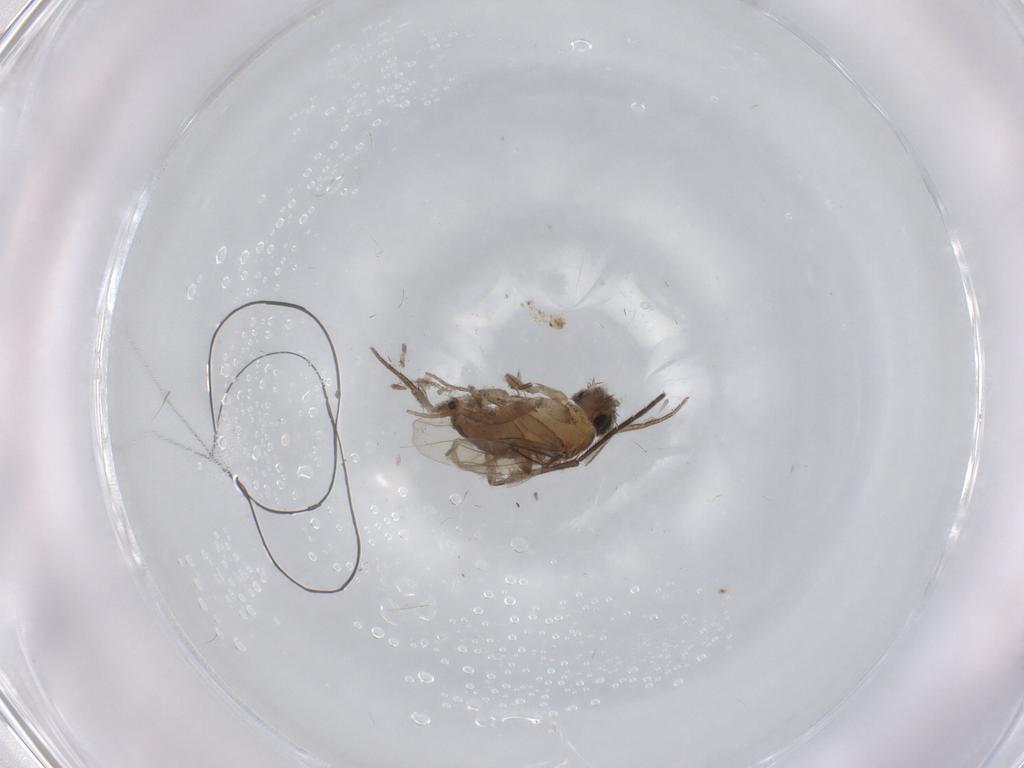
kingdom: Animalia
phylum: Arthropoda
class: Insecta
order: Diptera
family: Phoridae
